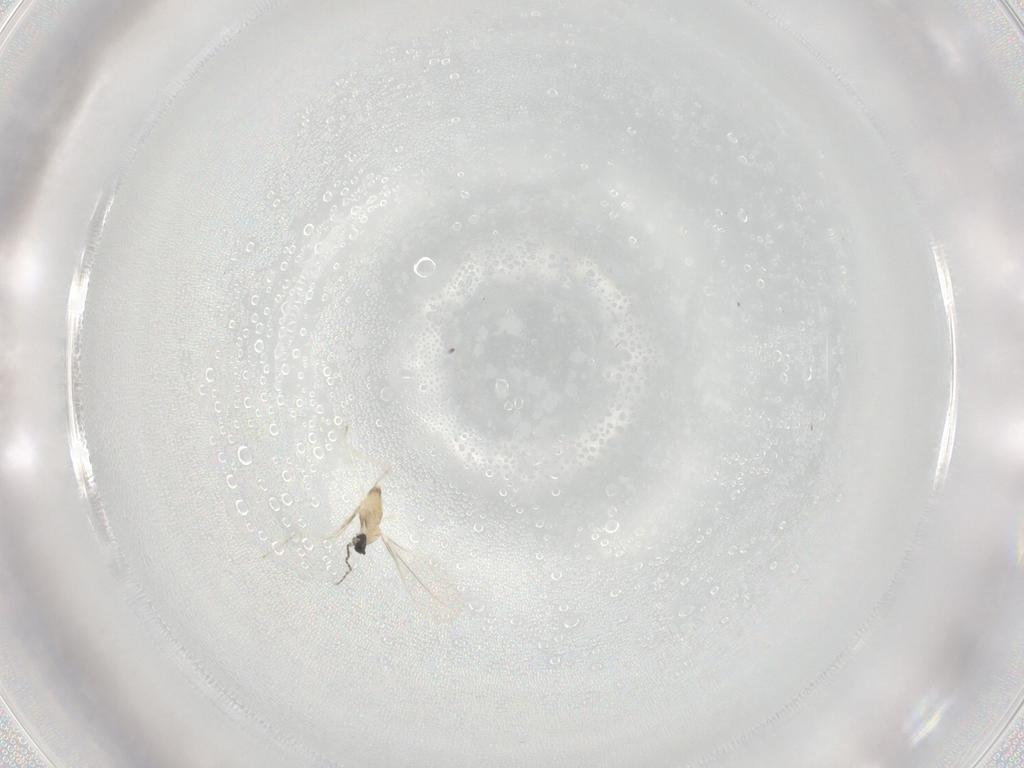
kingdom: Animalia
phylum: Arthropoda
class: Insecta
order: Diptera
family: Cecidomyiidae
